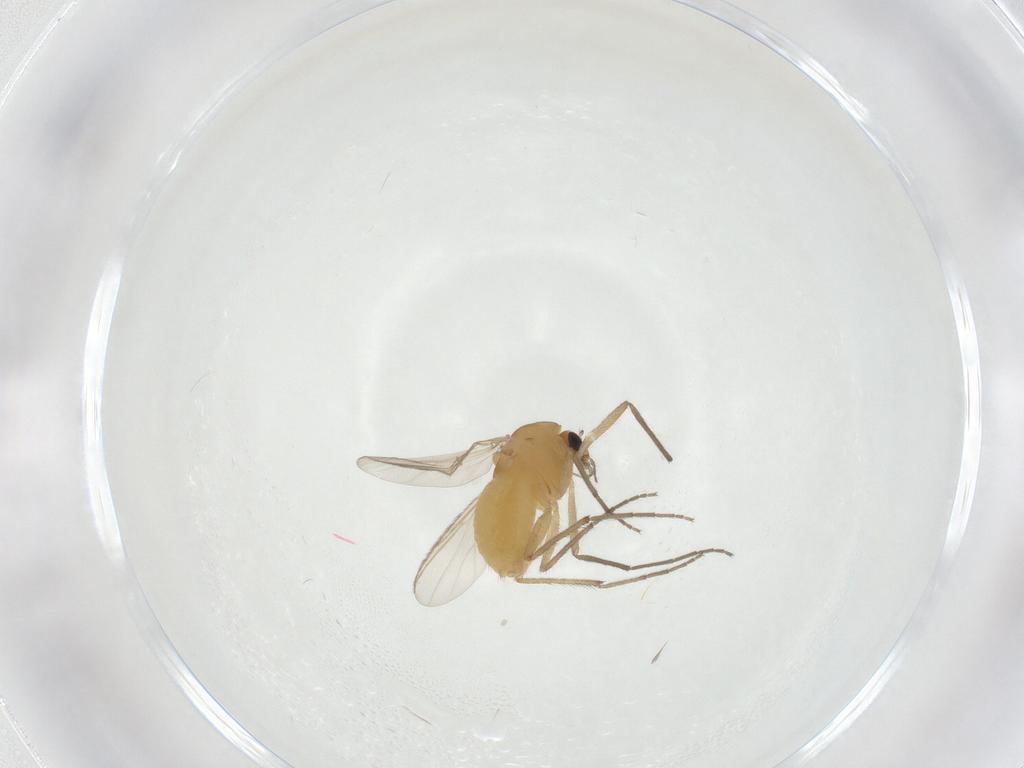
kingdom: Animalia
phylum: Arthropoda
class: Insecta
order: Diptera
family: Chironomidae
